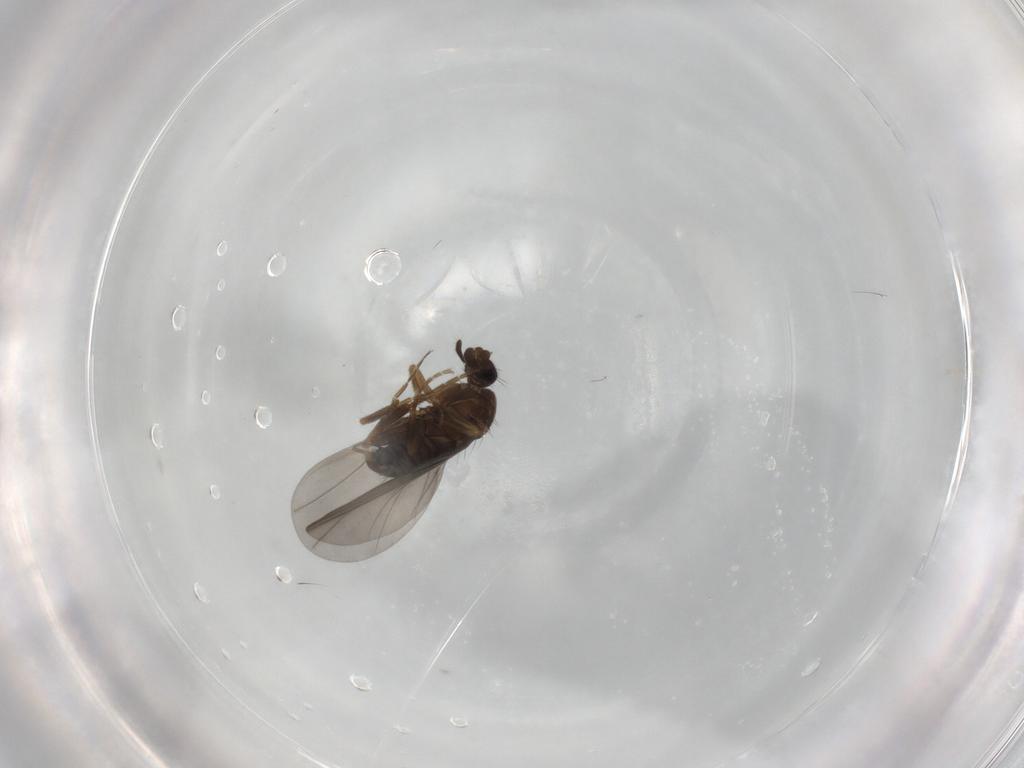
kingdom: Animalia
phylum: Arthropoda
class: Insecta
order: Diptera
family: Phoridae
